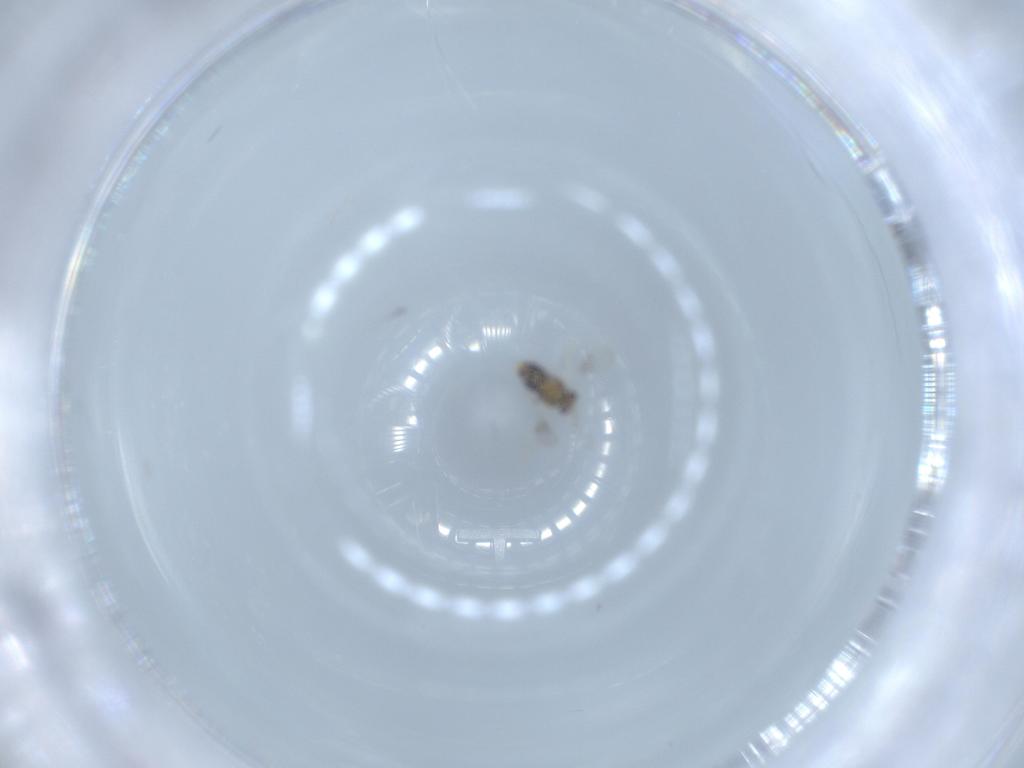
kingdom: Animalia
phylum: Arthropoda
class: Insecta
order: Hymenoptera
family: Aphelinidae
